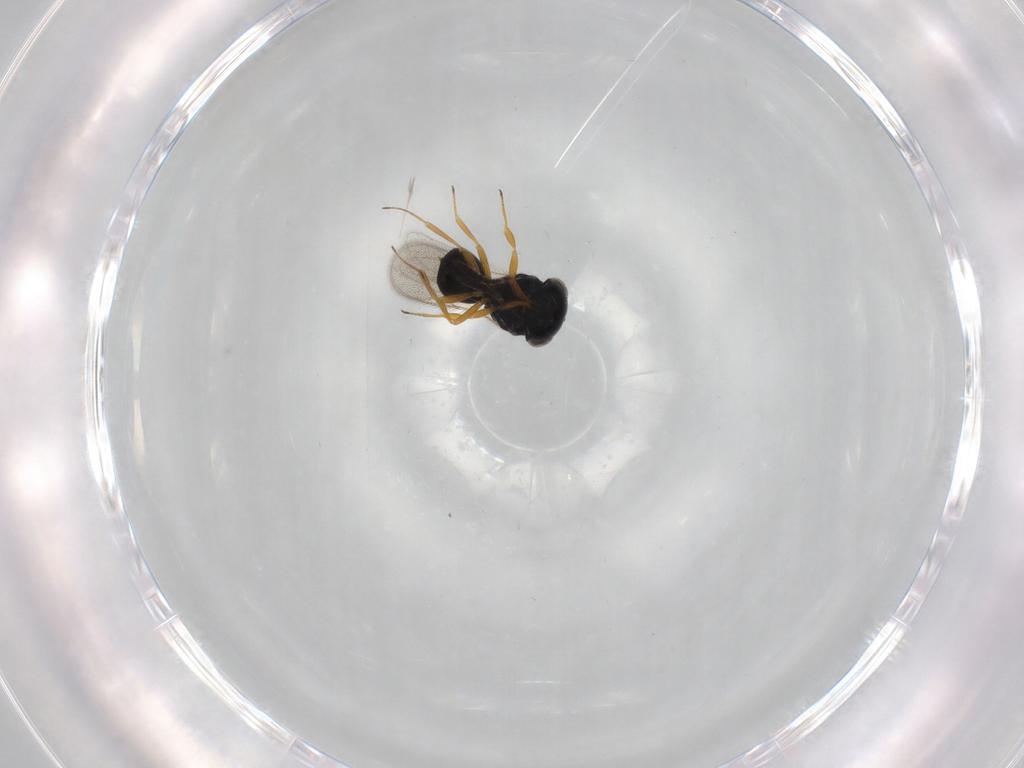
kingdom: Animalia
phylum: Arthropoda
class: Insecta
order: Hymenoptera
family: Scelionidae
